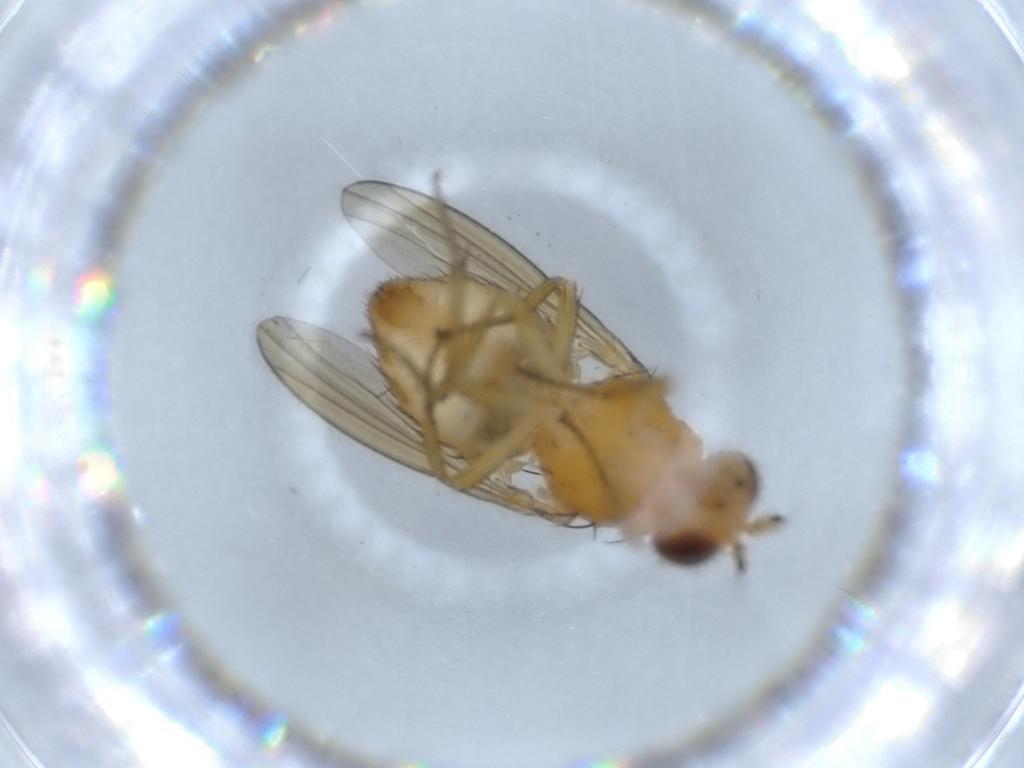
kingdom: Animalia
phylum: Arthropoda
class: Insecta
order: Diptera
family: Lauxaniidae
